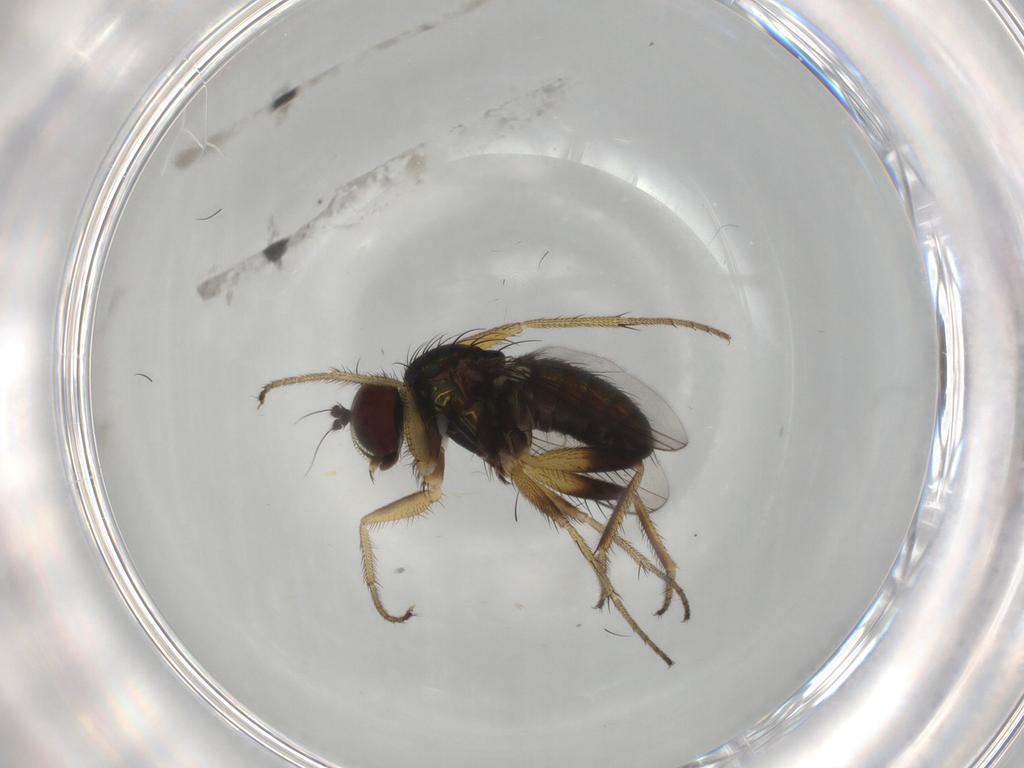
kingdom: Animalia
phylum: Arthropoda
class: Insecta
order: Diptera
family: Dolichopodidae
